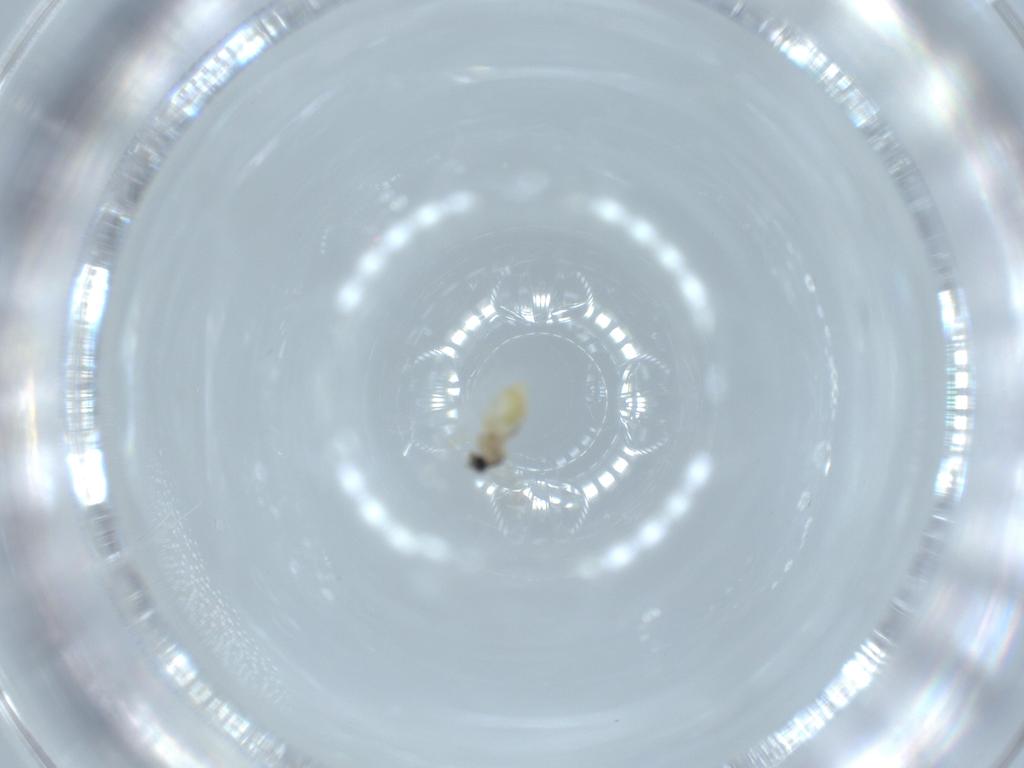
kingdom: Animalia
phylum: Arthropoda
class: Insecta
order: Diptera
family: Cecidomyiidae
